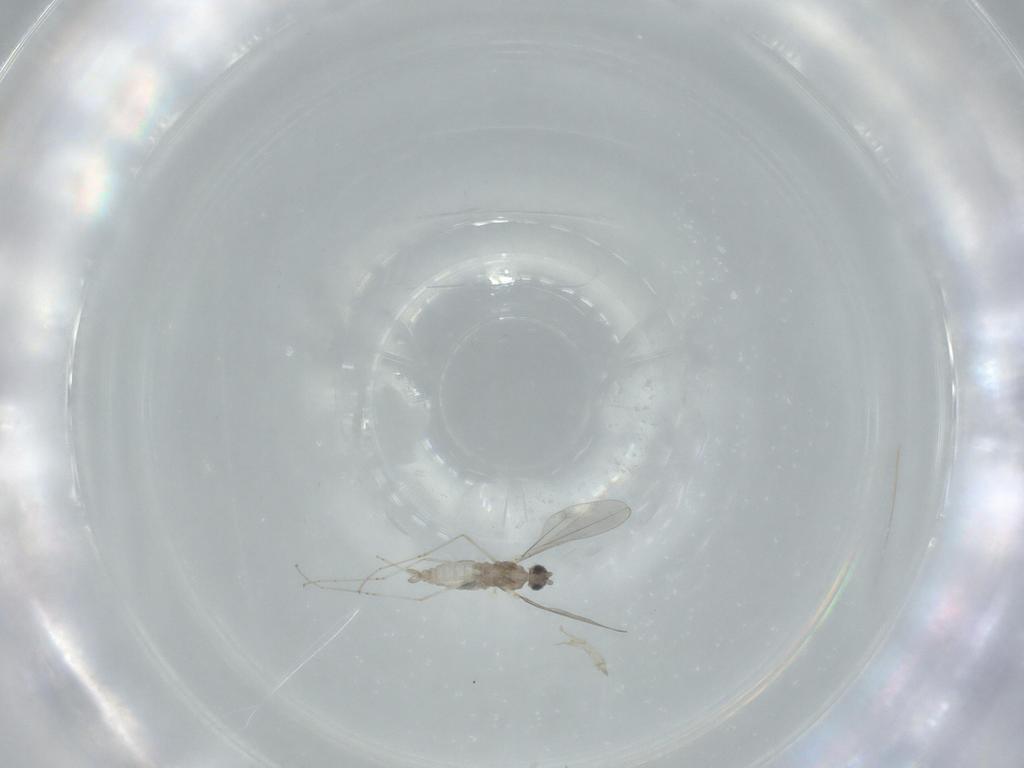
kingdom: Animalia
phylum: Arthropoda
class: Insecta
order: Diptera
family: Cecidomyiidae
